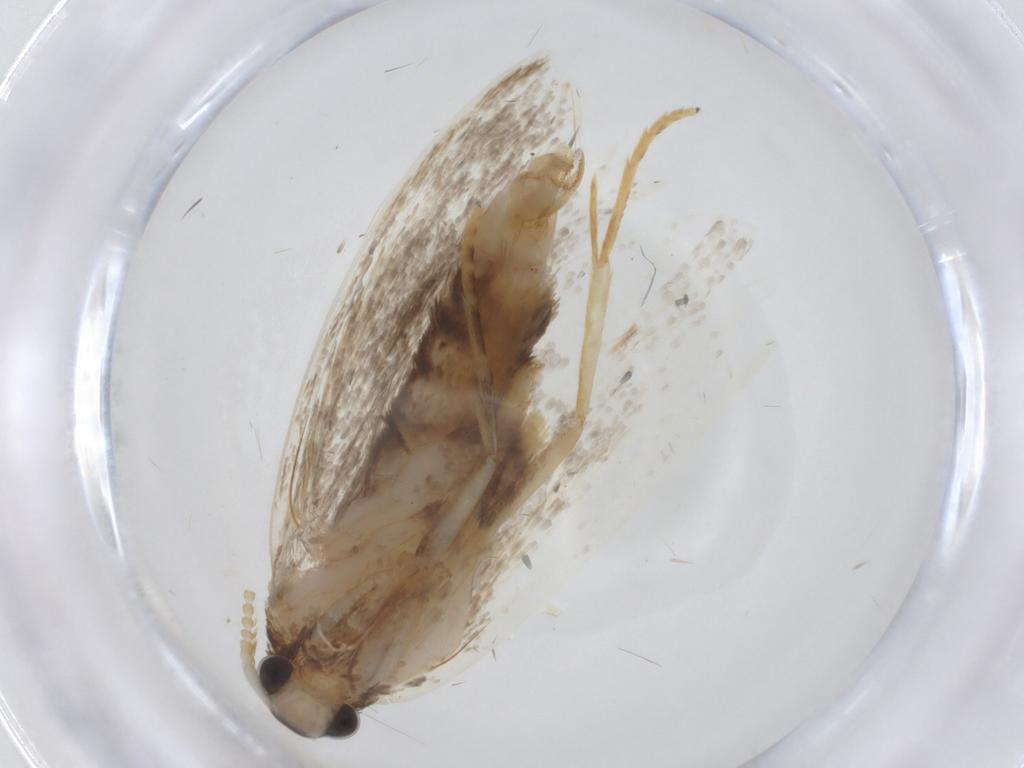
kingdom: Animalia
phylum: Arthropoda
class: Insecta
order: Lepidoptera
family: Lecithoceridae
